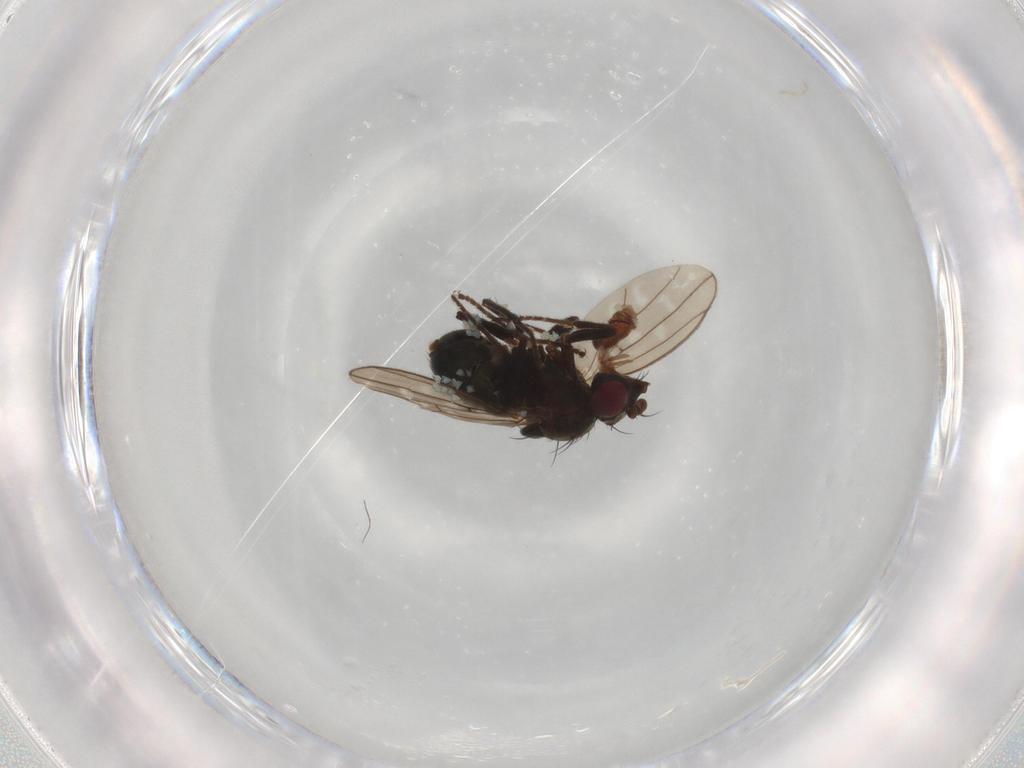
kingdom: Animalia
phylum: Arthropoda
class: Insecta
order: Diptera
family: Ephydridae
